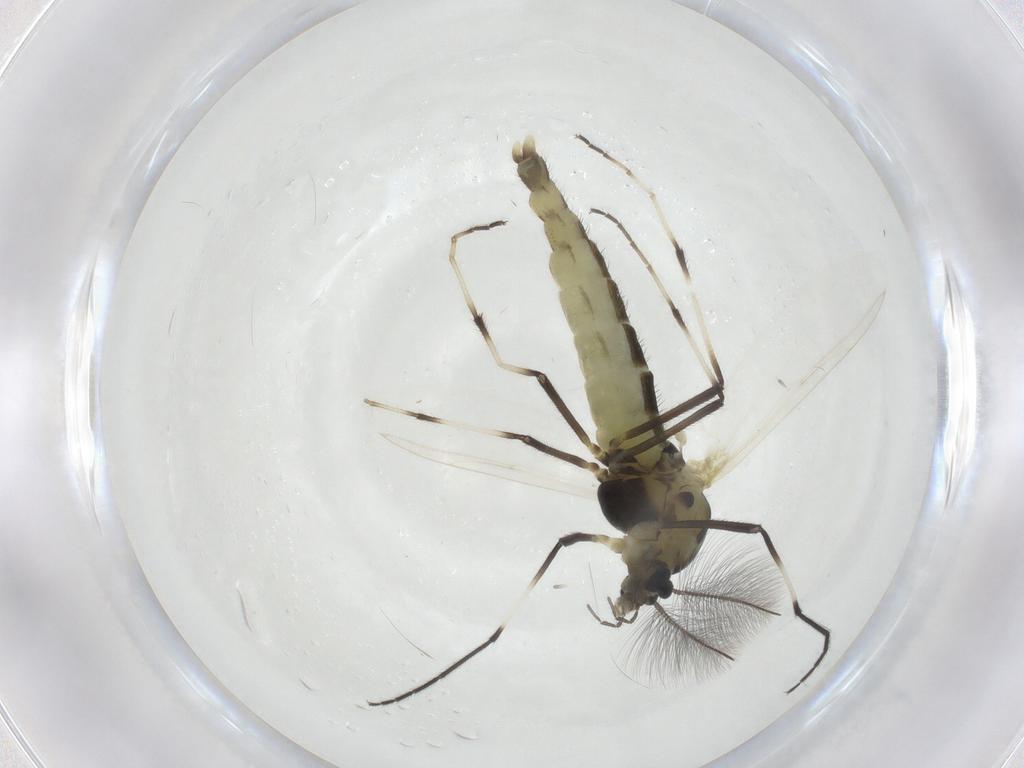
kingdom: Animalia
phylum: Arthropoda
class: Insecta
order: Diptera
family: Chironomidae
